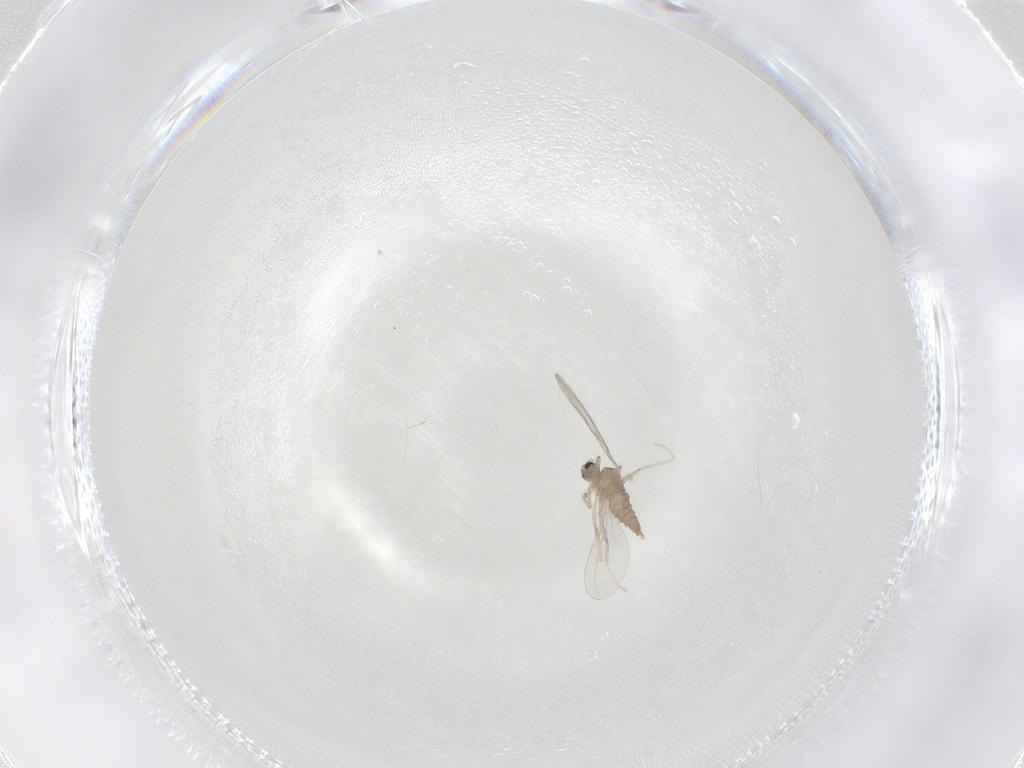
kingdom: Animalia
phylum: Arthropoda
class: Insecta
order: Diptera
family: Cecidomyiidae
